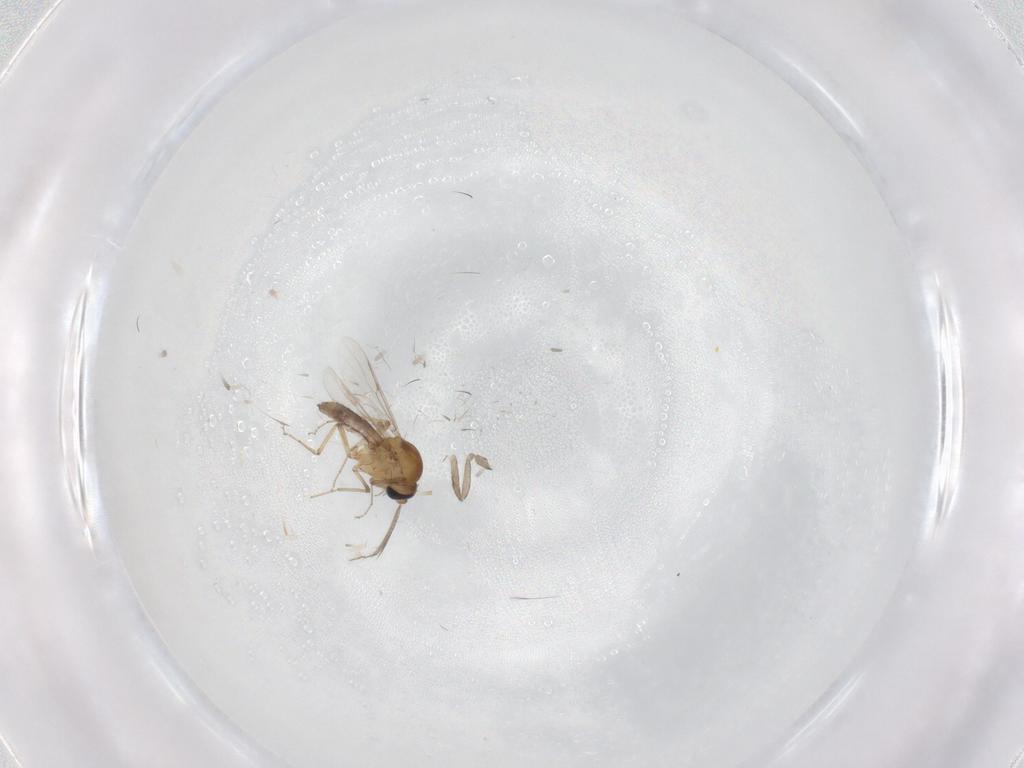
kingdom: Animalia
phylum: Arthropoda
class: Insecta
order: Diptera
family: Cecidomyiidae
